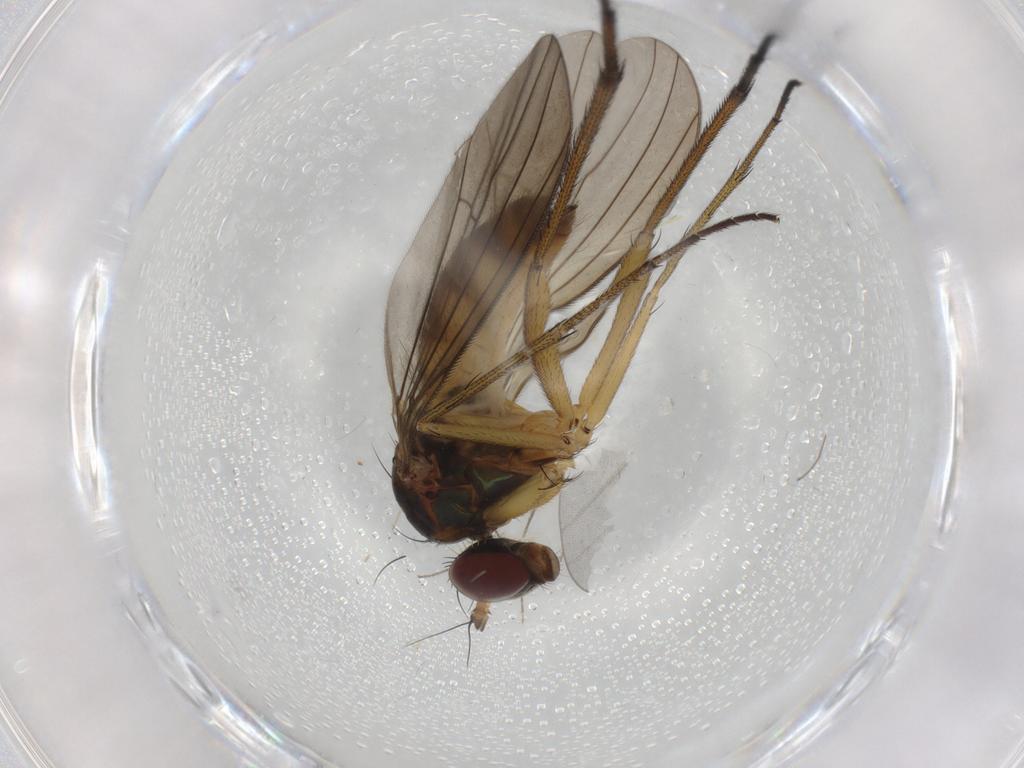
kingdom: Animalia
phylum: Arthropoda
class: Insecta
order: Diptera
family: Chironomidae
